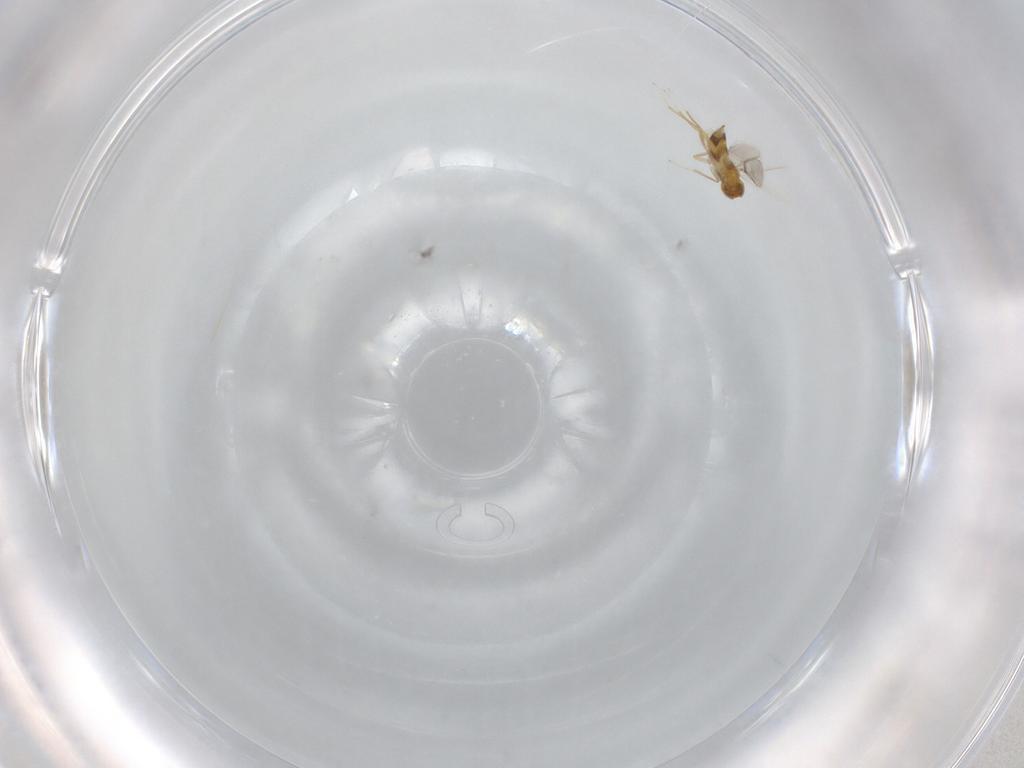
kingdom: Animalia
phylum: Arthropoda
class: Insecta
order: Hymenoptera
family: Aphelinidae
